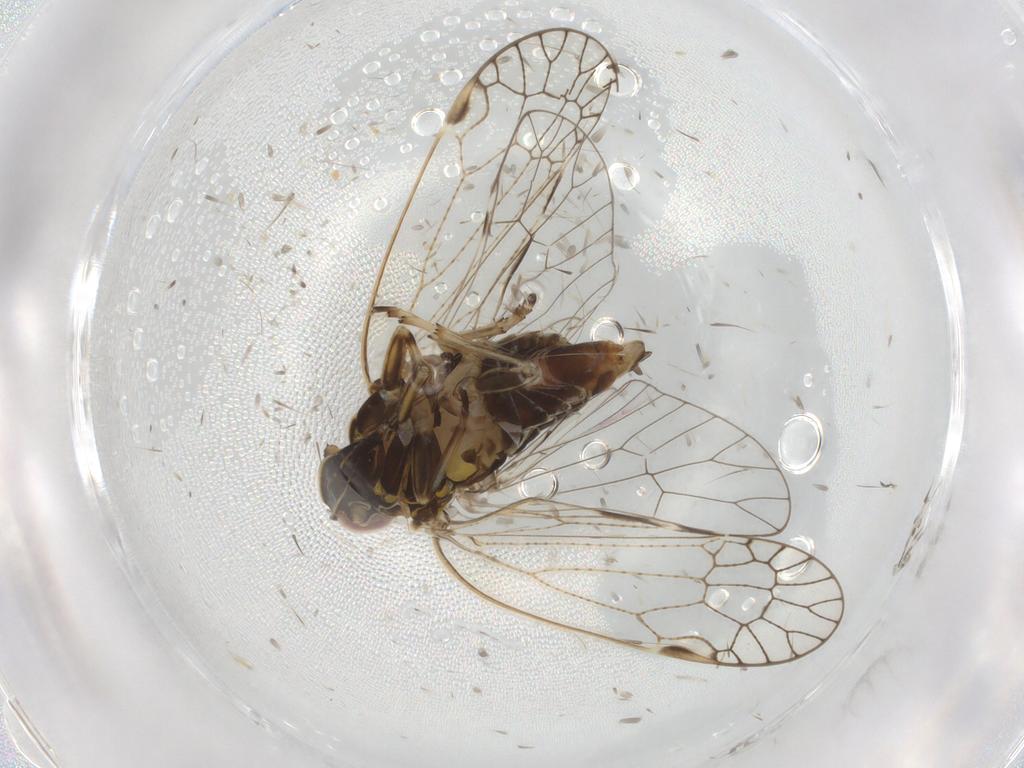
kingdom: Animalia
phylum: Arthropoda
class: Insecta
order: Hemiptera
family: Cixiidae
